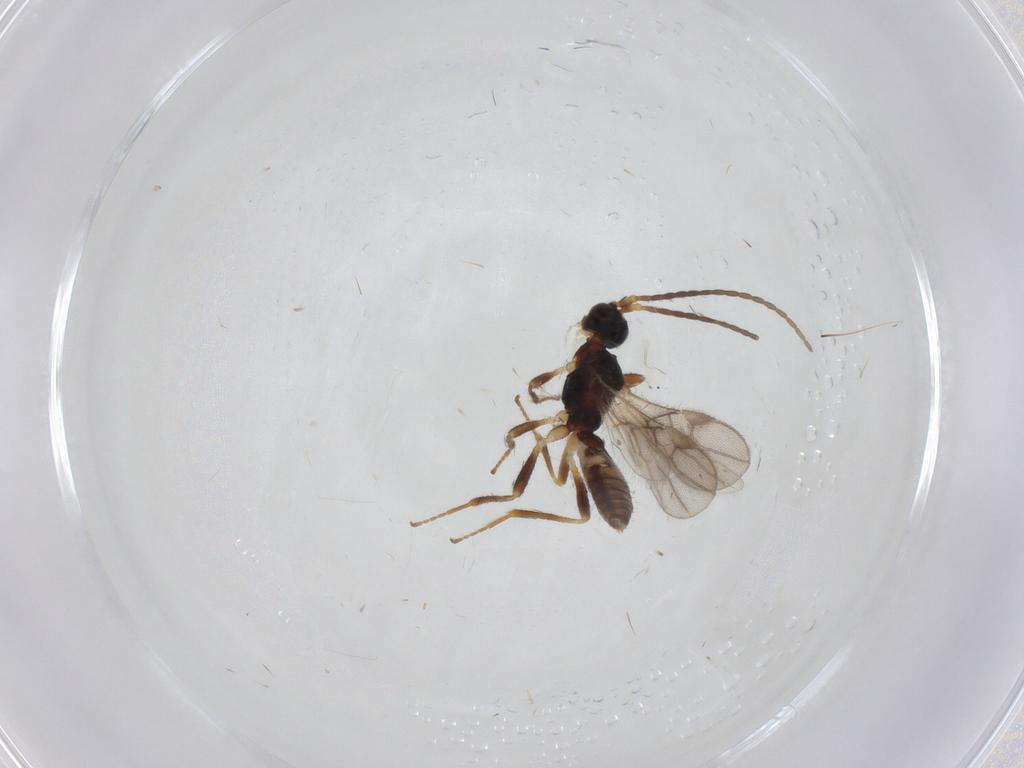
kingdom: Animalia
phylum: Arthropoda
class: Insecta
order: Hymenoptera
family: Braconidae
